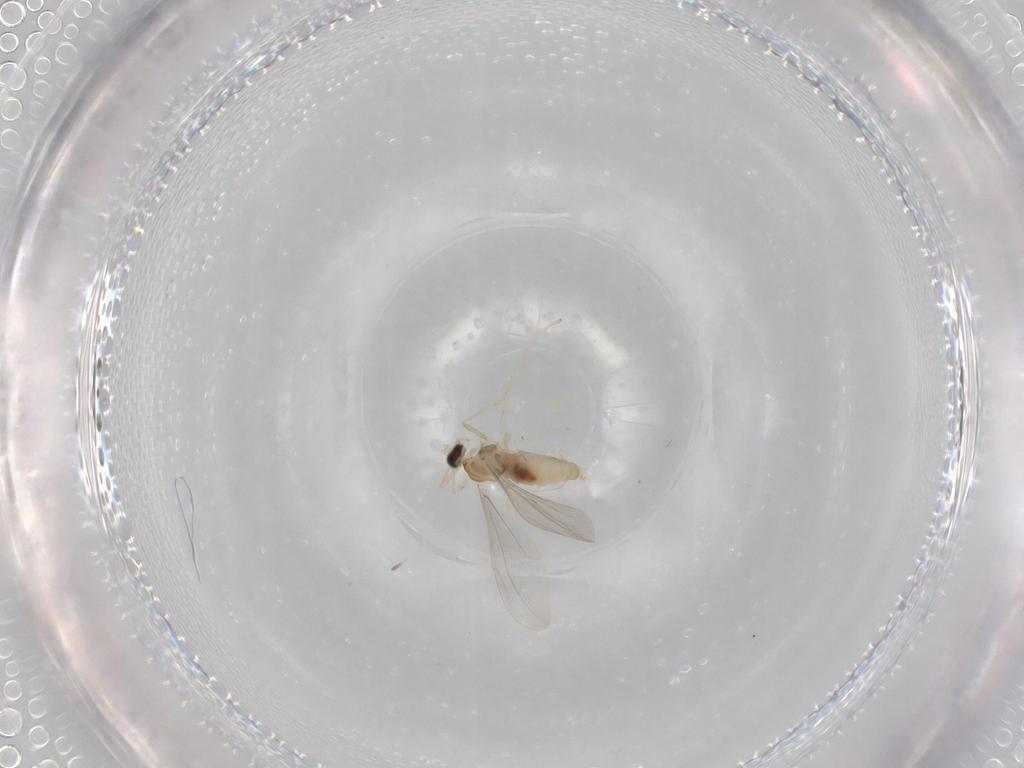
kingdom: Animalia
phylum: Arthropoda
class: Insecta
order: Diptera
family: Cecidomyiidae
